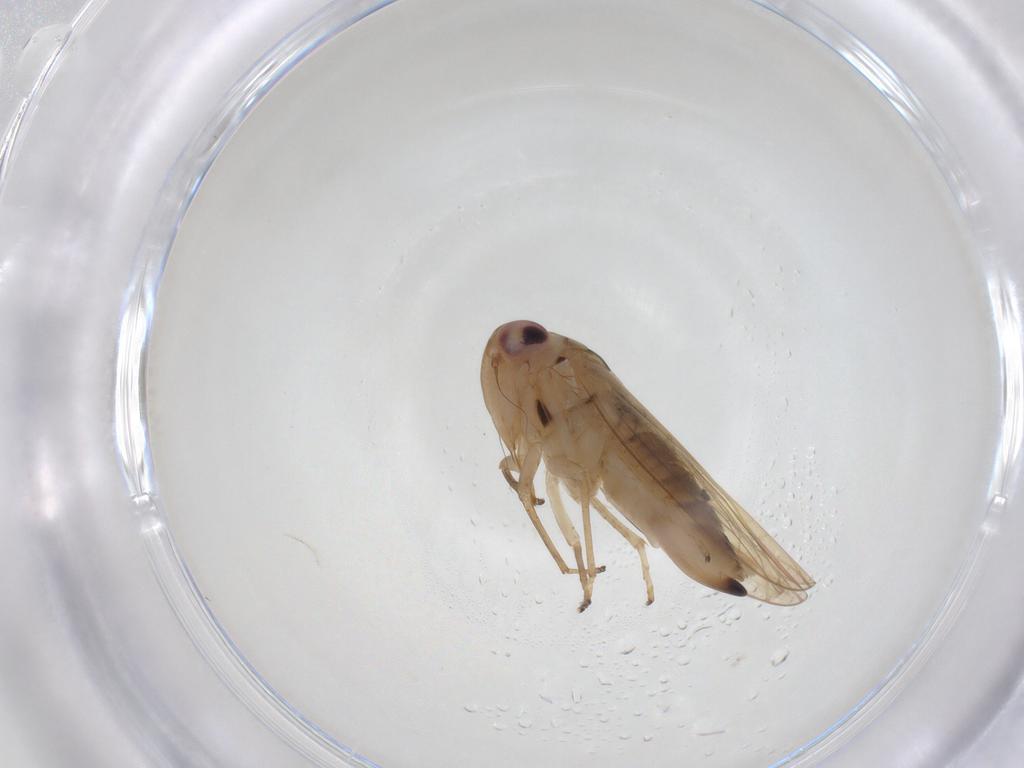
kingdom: Animalia
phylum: Arthropoda
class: Insecta
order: Hemiptera
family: Cicadellidae
